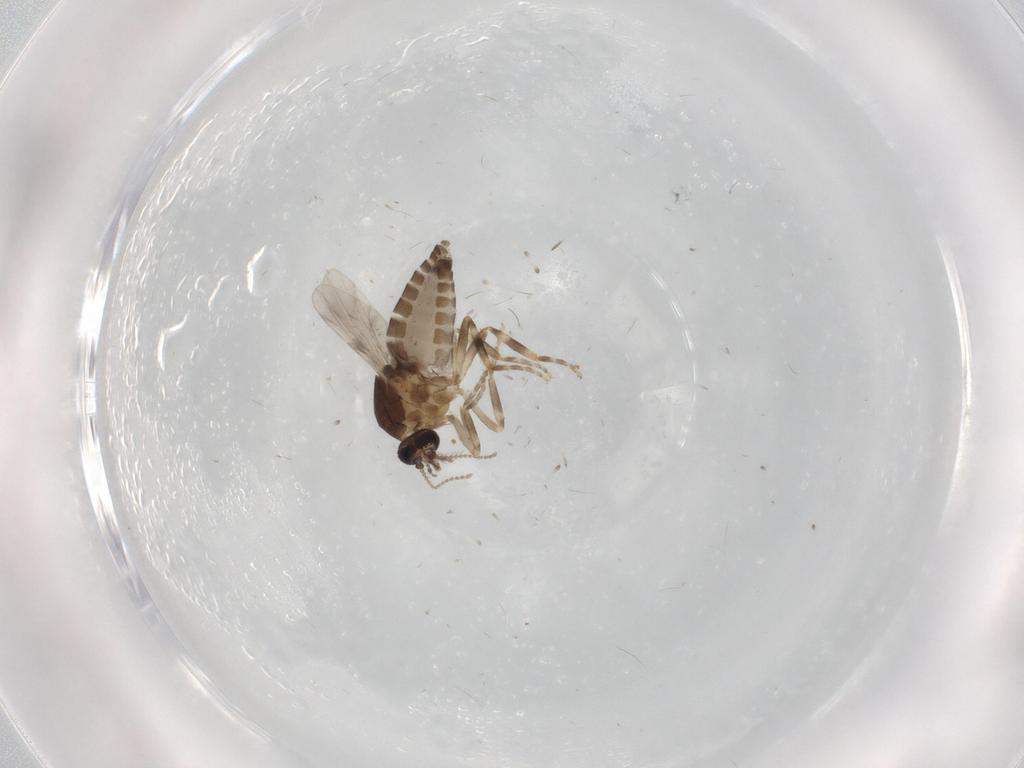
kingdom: Animalia
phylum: Arthropoda
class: Insecta
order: Diptera
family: Ceratopogonidae
